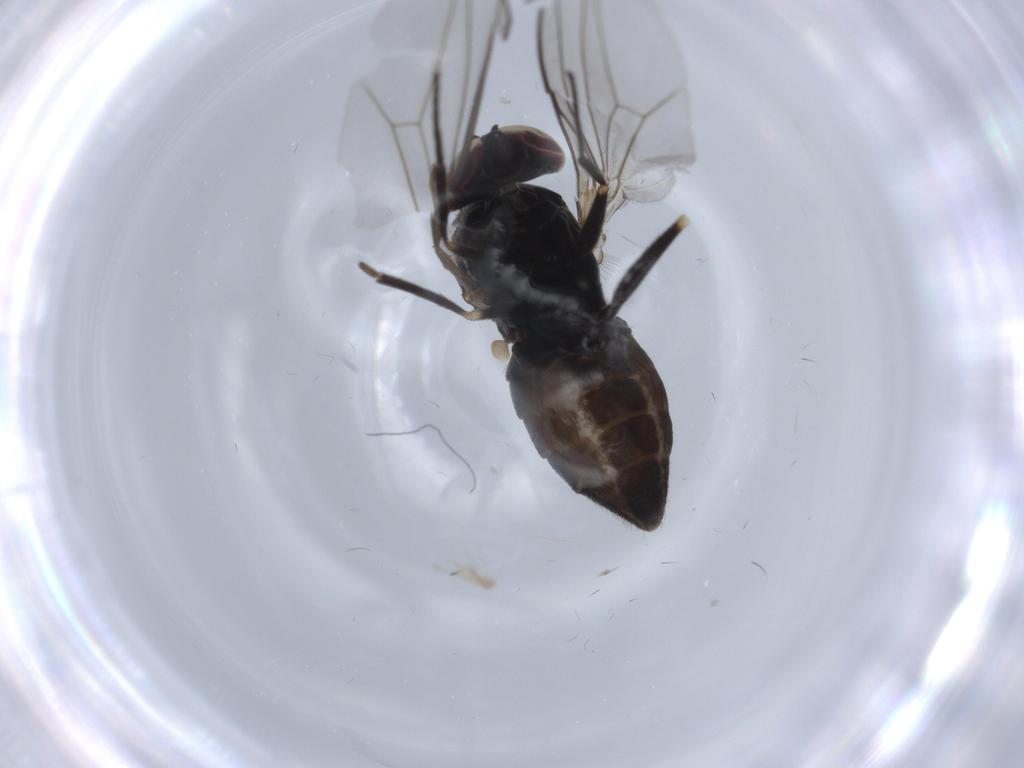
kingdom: Animalia
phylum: Arthropoda
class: Insecta
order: Diptera
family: Dolichopodidae
